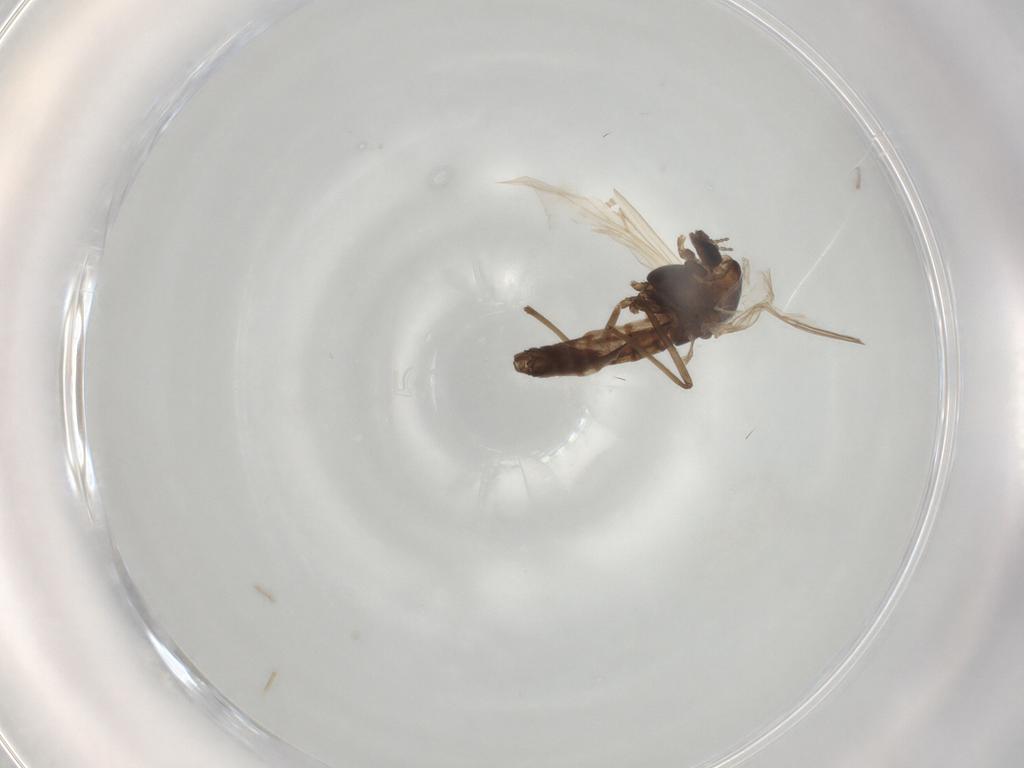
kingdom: Animalia
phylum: Arthropoda
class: Insecta
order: Diptera
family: Chironomidae
